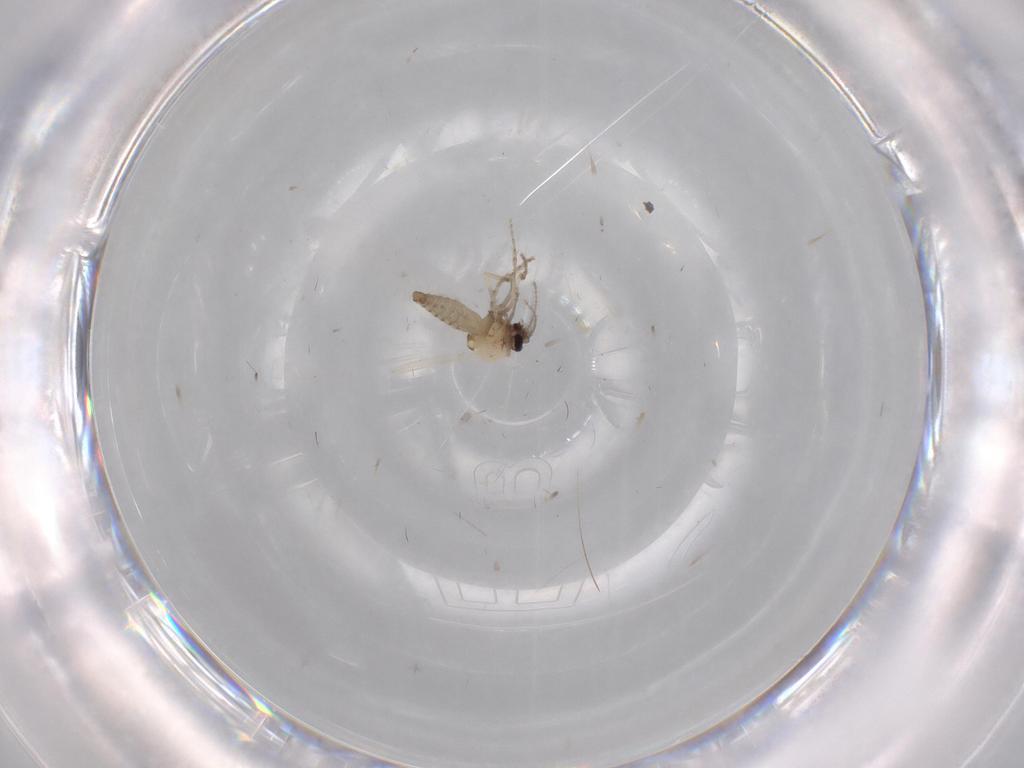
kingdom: Animalia
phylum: Arthropoda
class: Insecta
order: Diptera
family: Ceratopogonidae
